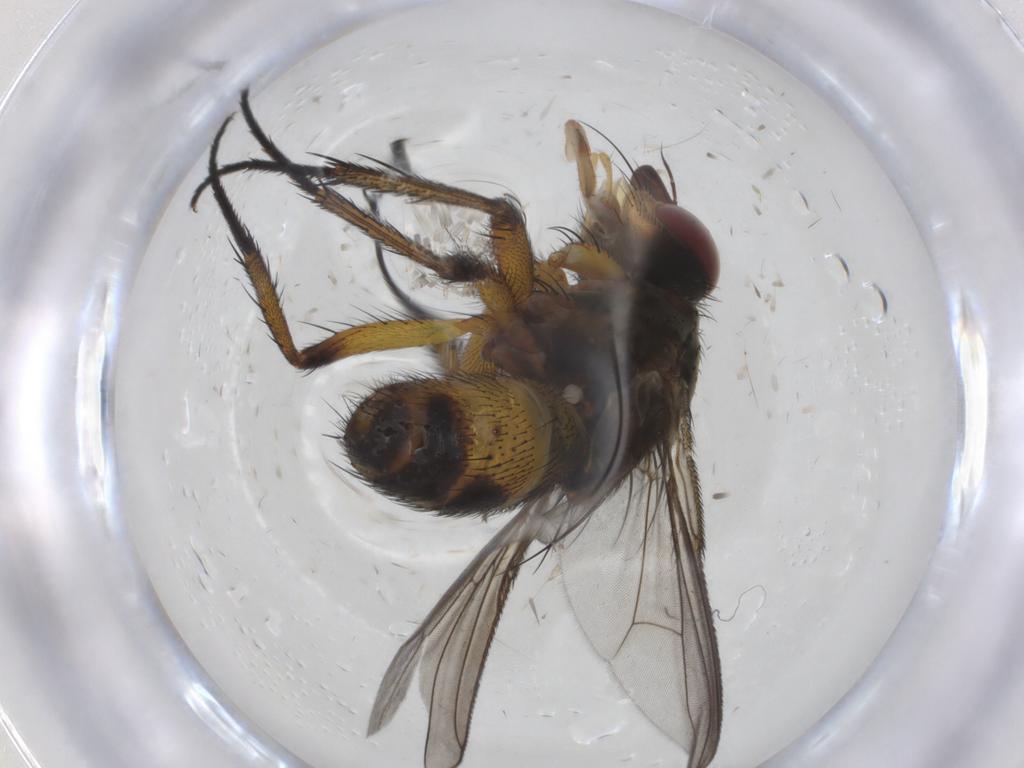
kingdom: Animalia
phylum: Arthropoda
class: Insecta
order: Diptera
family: Tachinidae
